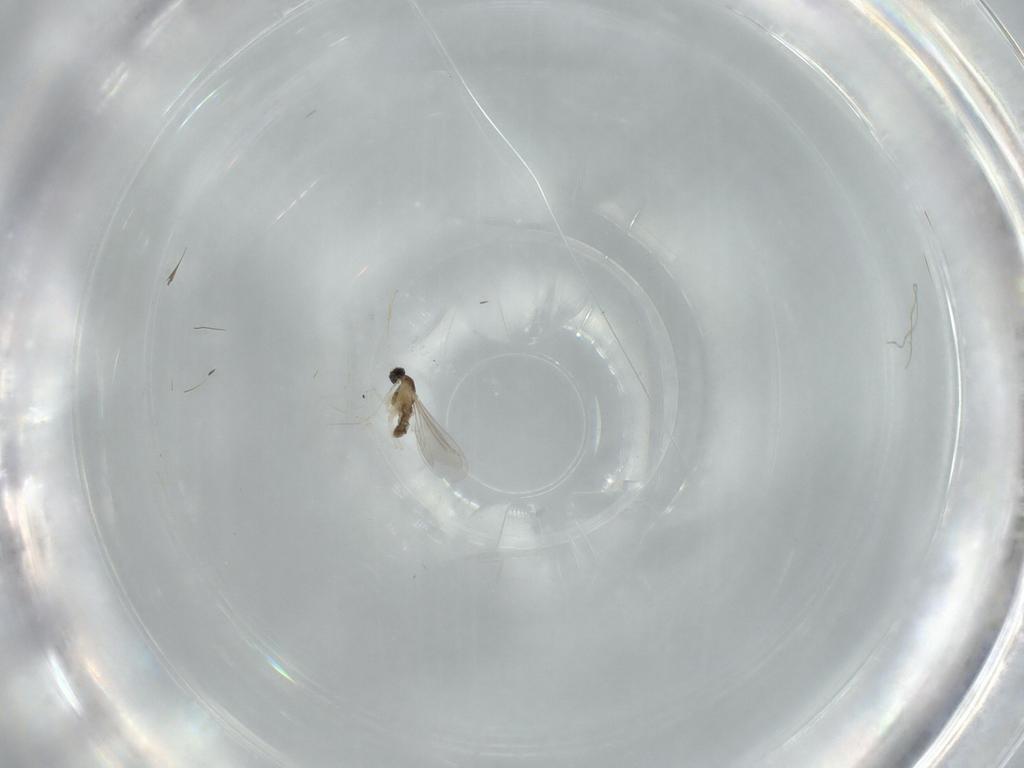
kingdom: Animalia
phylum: Arthropoda
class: Insecta
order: Diptera
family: Cecidomyiidae
